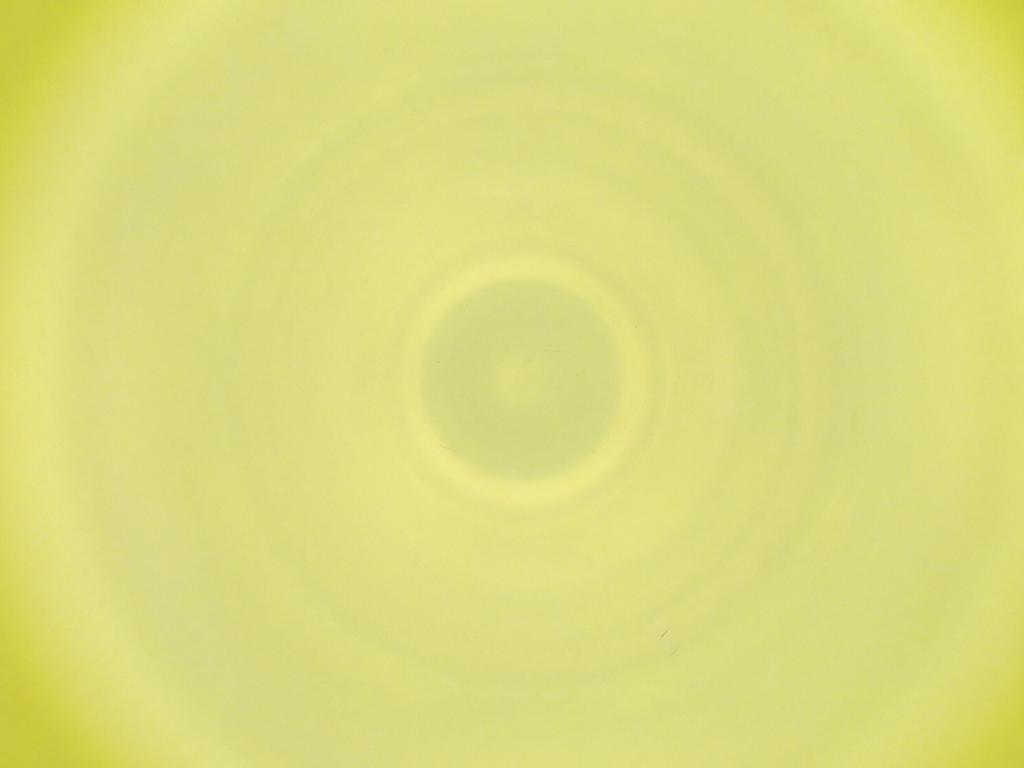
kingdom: Animalia
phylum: Arthropoda
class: Insecta
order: Diptera
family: Cecidomyiidae
